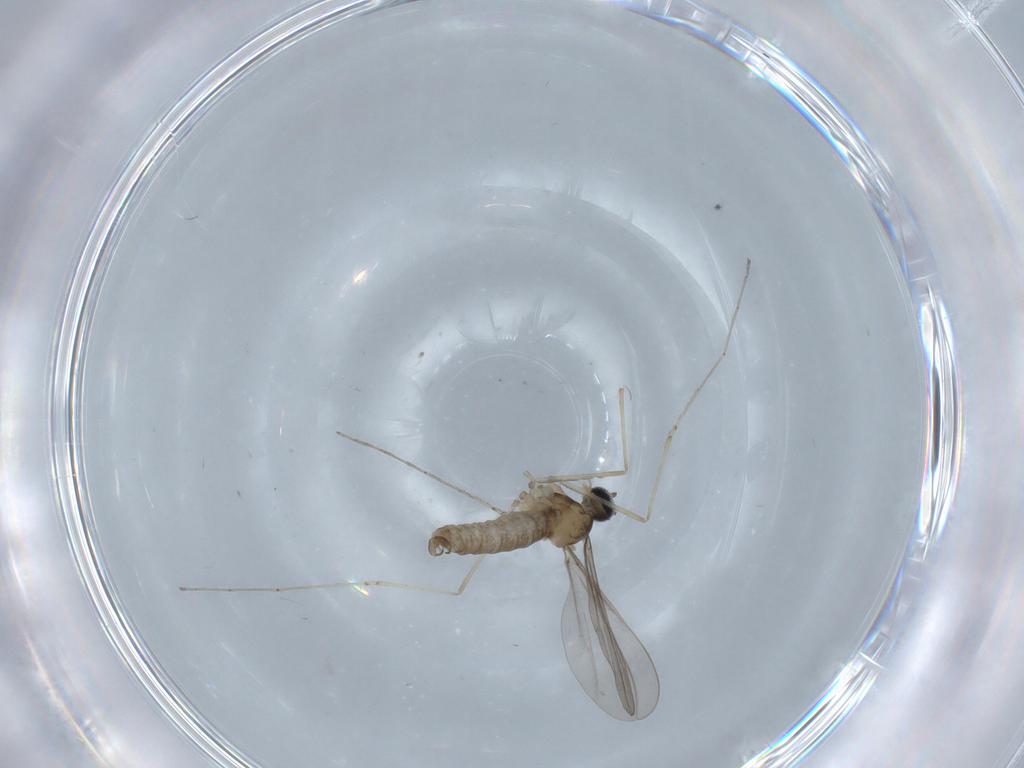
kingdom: Animalia
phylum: Arthropoda
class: Insecta
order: Diptera
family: Cecidomyiidae
